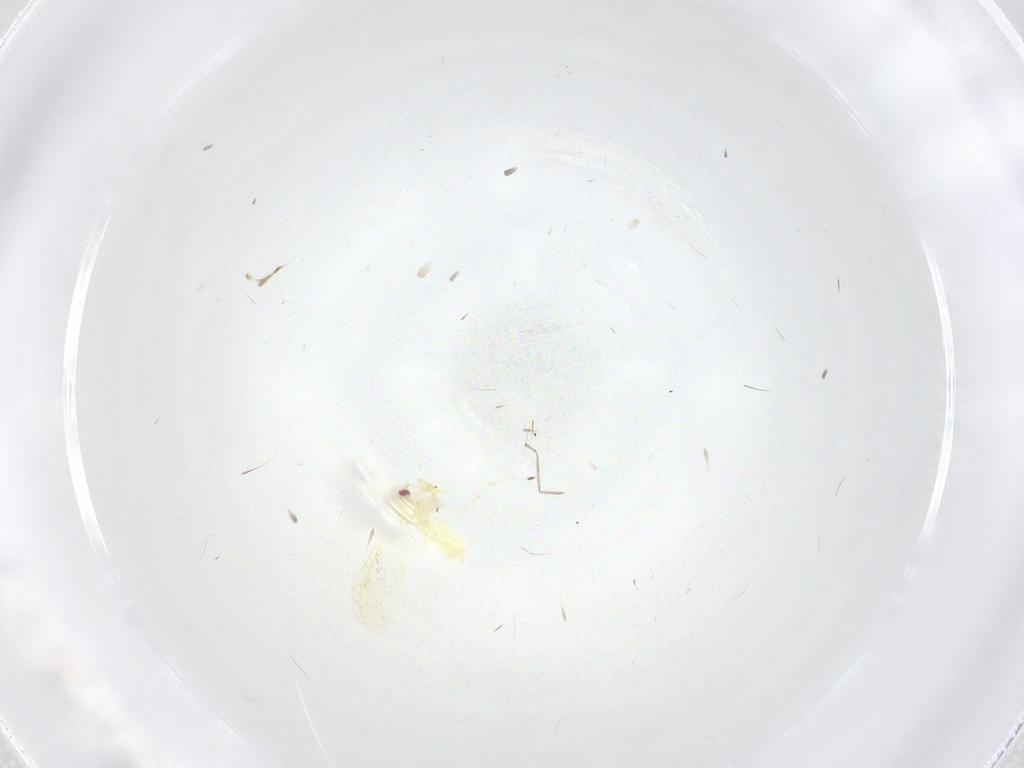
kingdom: Animalia
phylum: Arthropoda
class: Insecta
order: Hemiptera
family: Aleyrodidae
